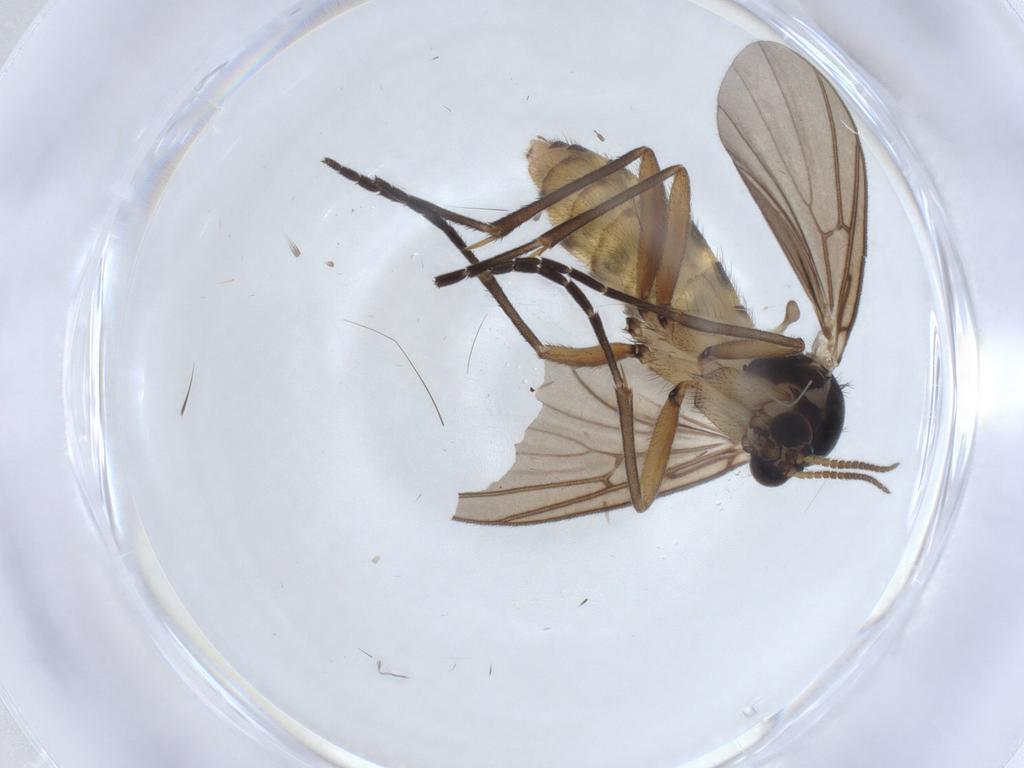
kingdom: Animalia
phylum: Arthropoda
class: Insecta
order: Diptera
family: Mycetophilidae
